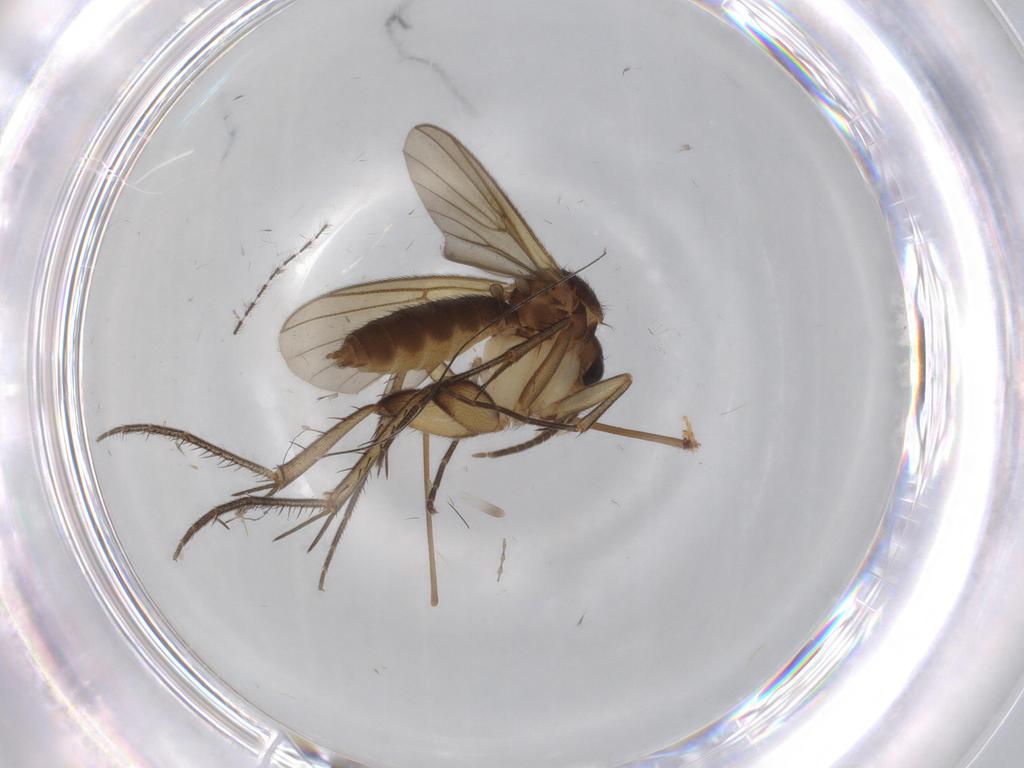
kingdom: Animalia
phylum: Arthropoda
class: Insecta
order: Diptera
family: Limoniidae
